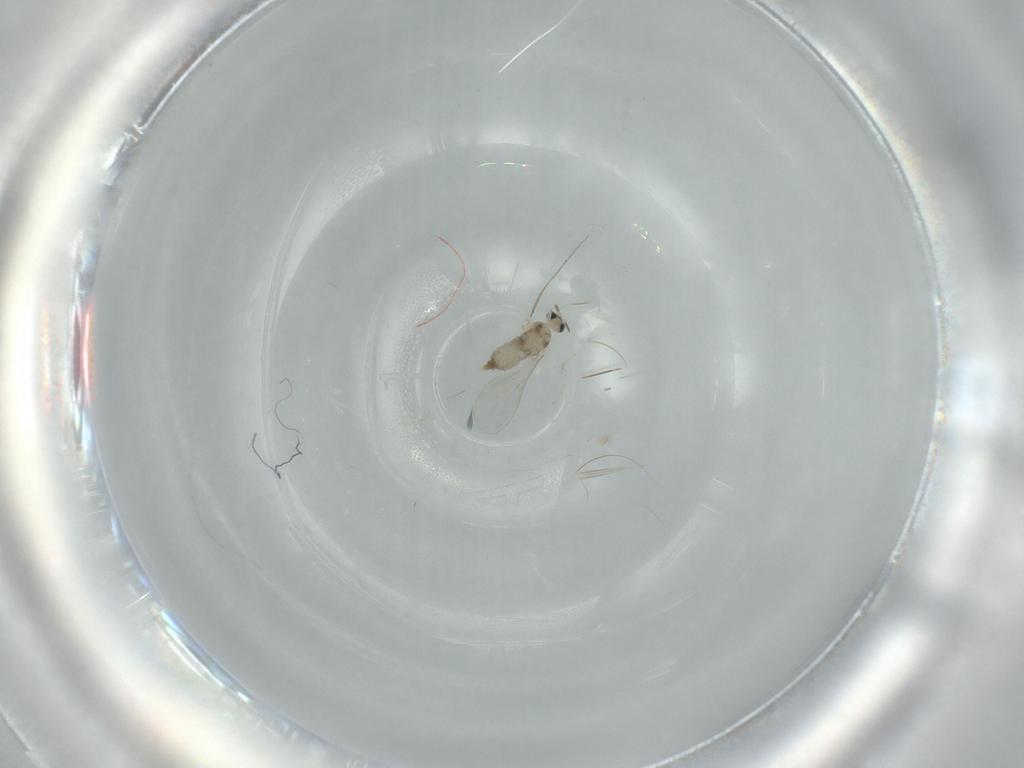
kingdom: Animalia
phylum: Arthropoda
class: Insecta
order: Diptera
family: Cecidomyiidae
